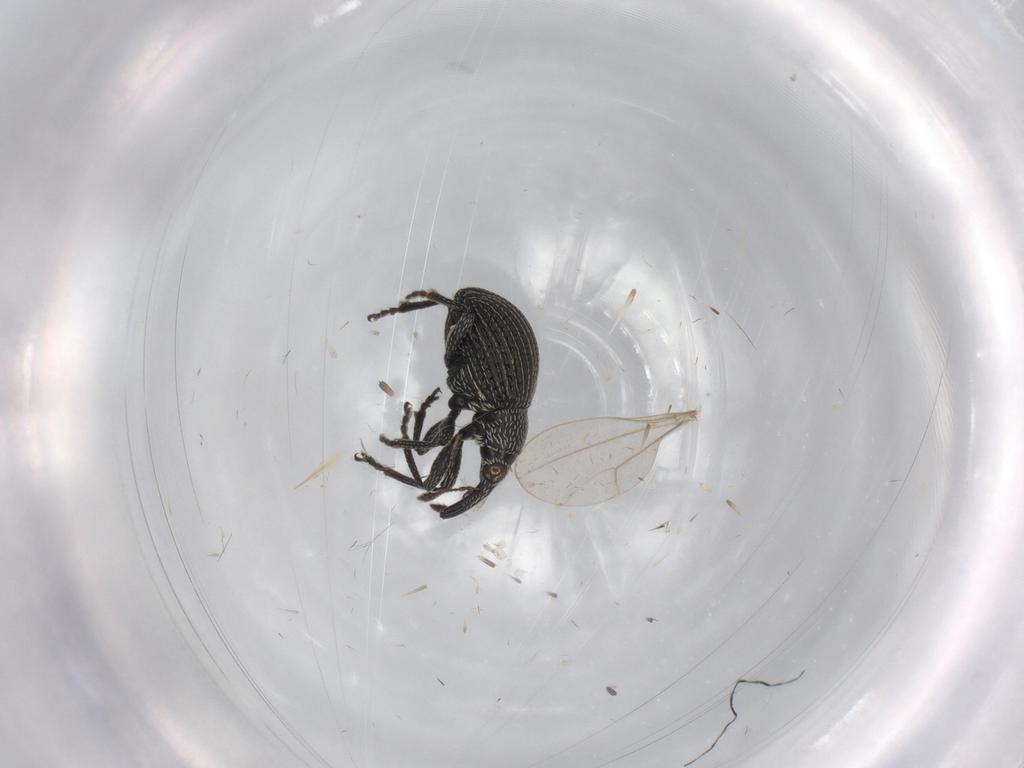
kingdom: Animalia
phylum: Arthropoda
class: Insecta
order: Coleoptera
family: Brentidae
